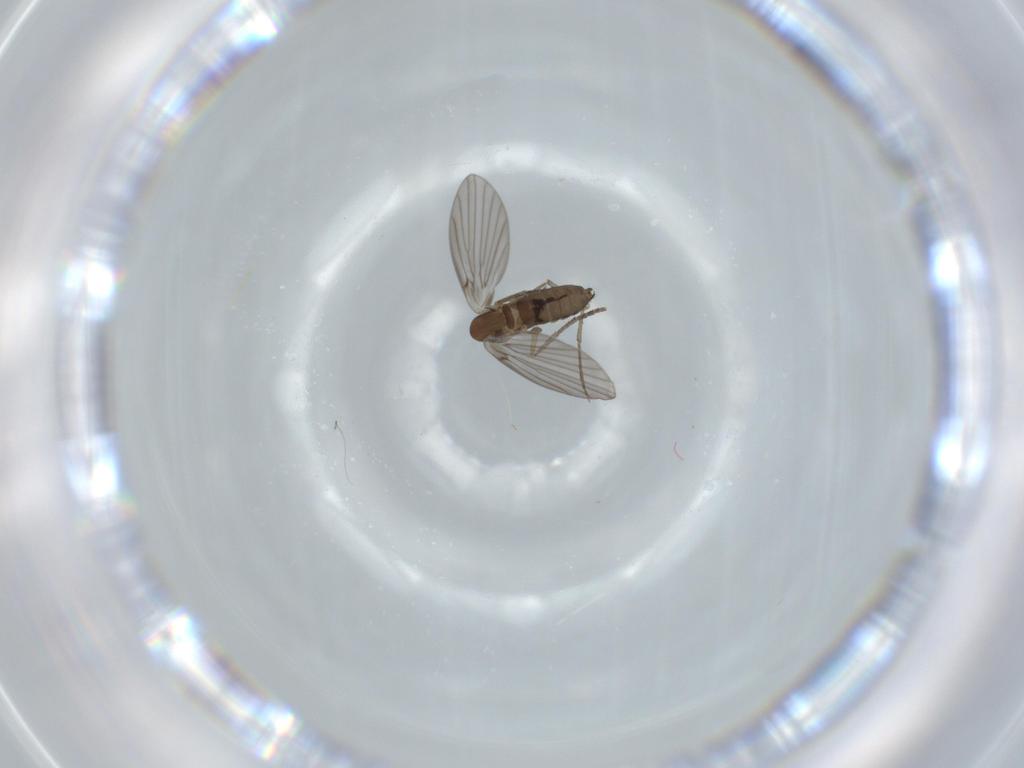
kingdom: Animalia
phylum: Arthropoda
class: Insecta
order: Diptera
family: Psychodidae
